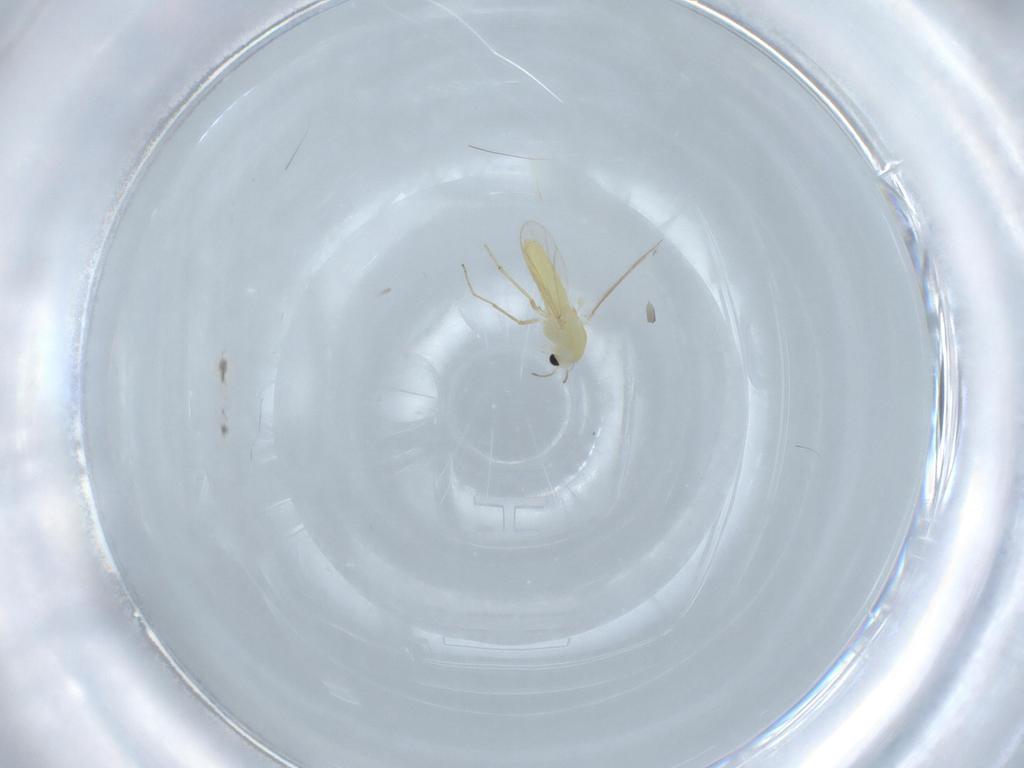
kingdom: Animalia
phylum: Arthropoda
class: Insecta
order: Diptera
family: Chironomidae
